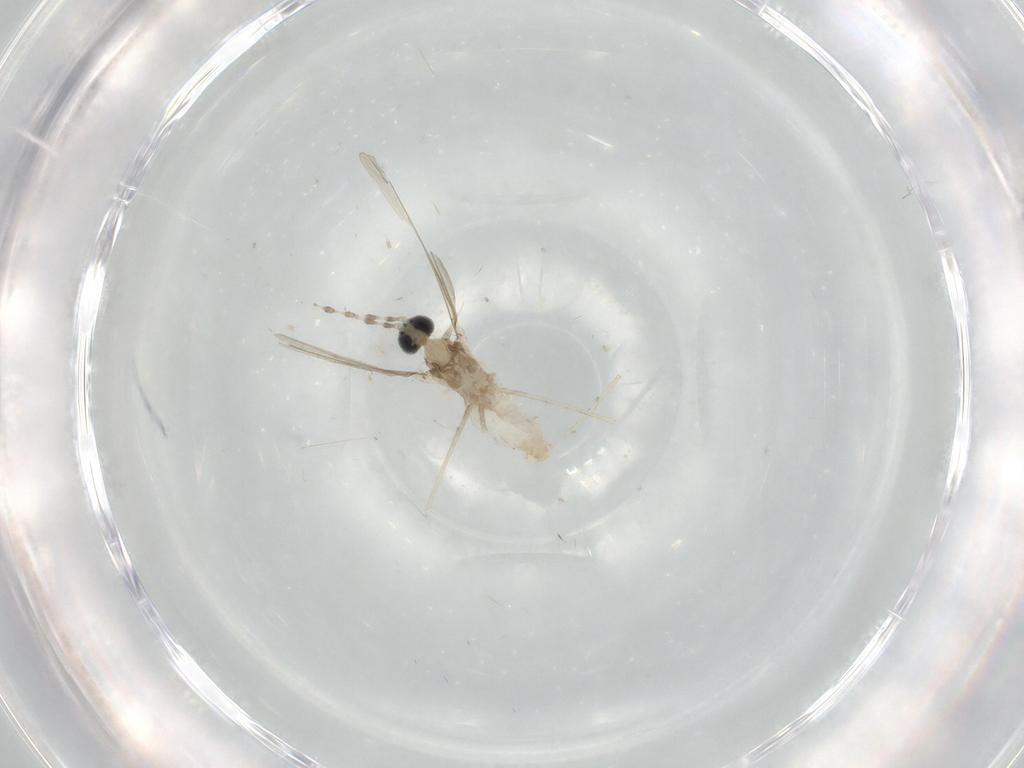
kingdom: Animalia
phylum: Arthropoda
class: Insecta
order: Diptera
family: Cecidomyiidae
